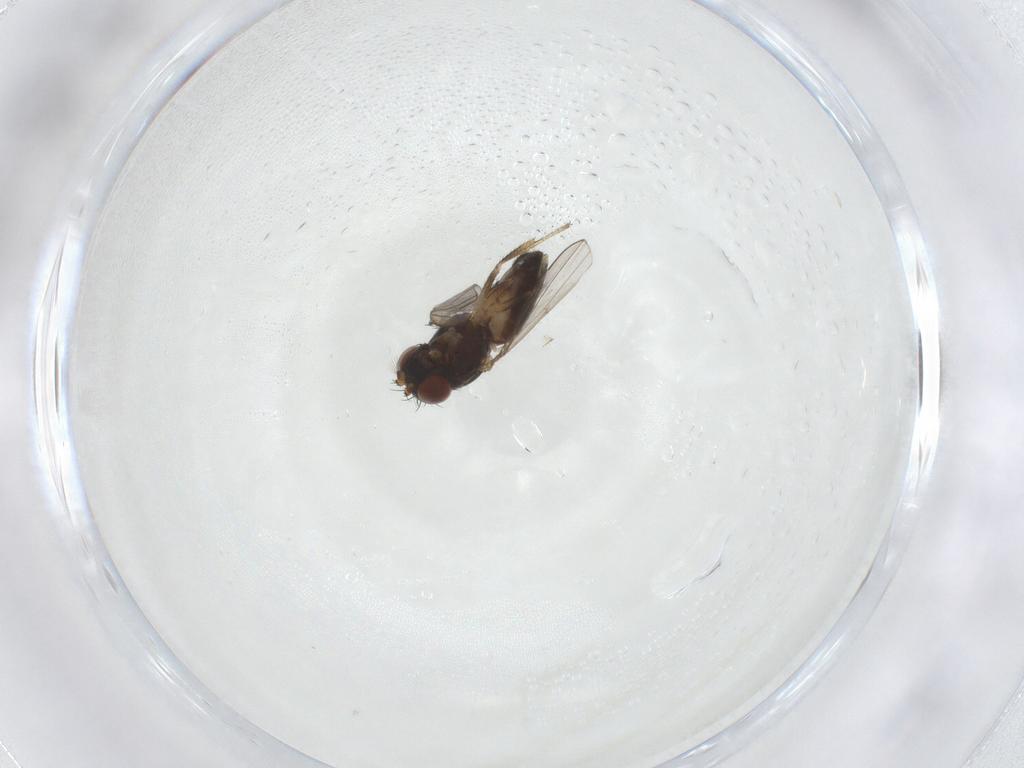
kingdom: Animalia
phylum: Arthropoda
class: Insecta
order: Diptera
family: Ephydridae
